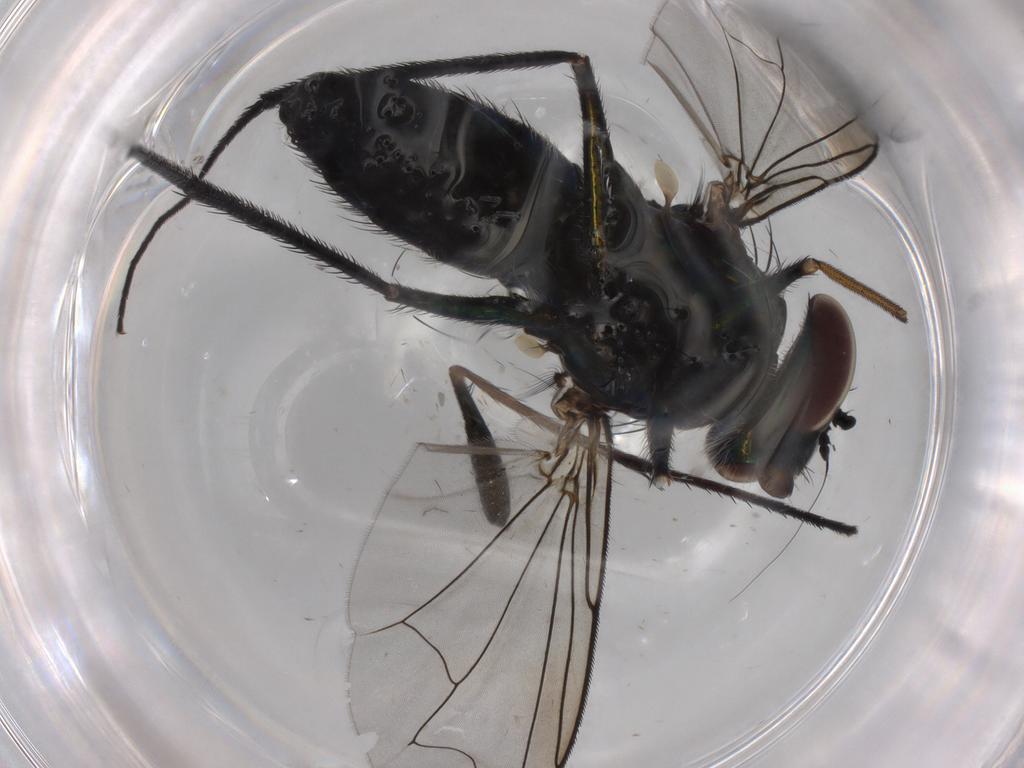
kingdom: Animalia
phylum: Arthropoda
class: Insecta
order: Diptera
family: Dolichopodidae
